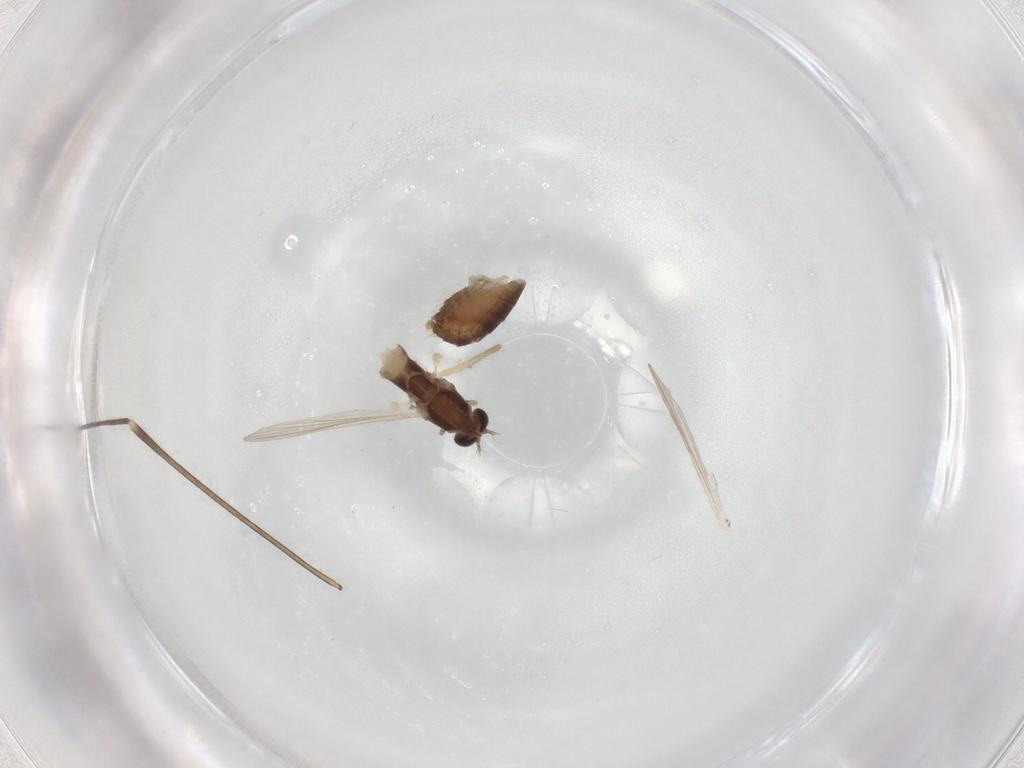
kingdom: Animalia
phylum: Arthropoda
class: Insecta
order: Diptera
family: Chironomidae
